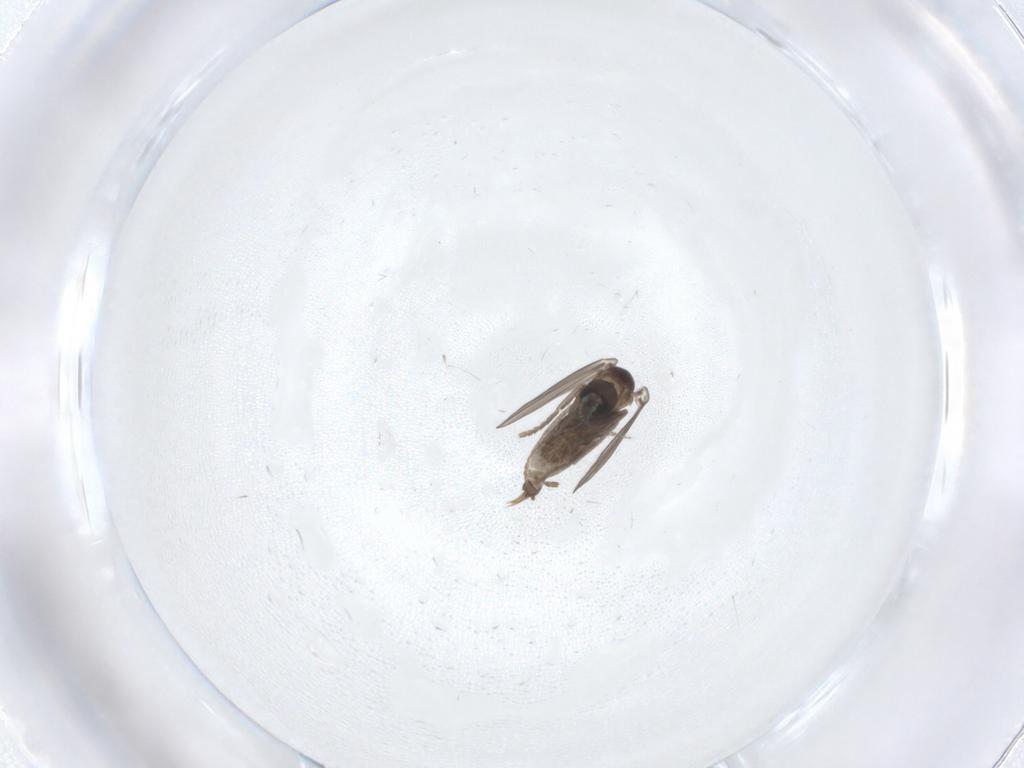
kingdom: Animalia
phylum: Arthropoda
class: Insecta
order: Diptera
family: Psychodidae
